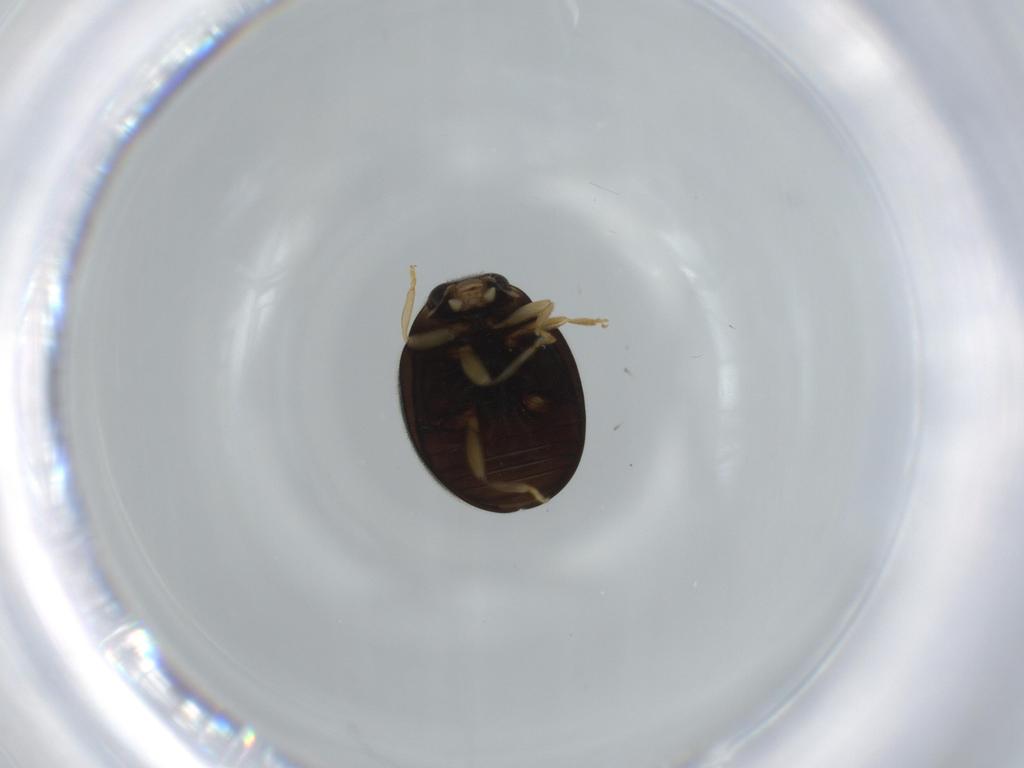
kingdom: Animalia
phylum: Arthropoda
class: Insecta
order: Coleoptera
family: Coccinellidae
